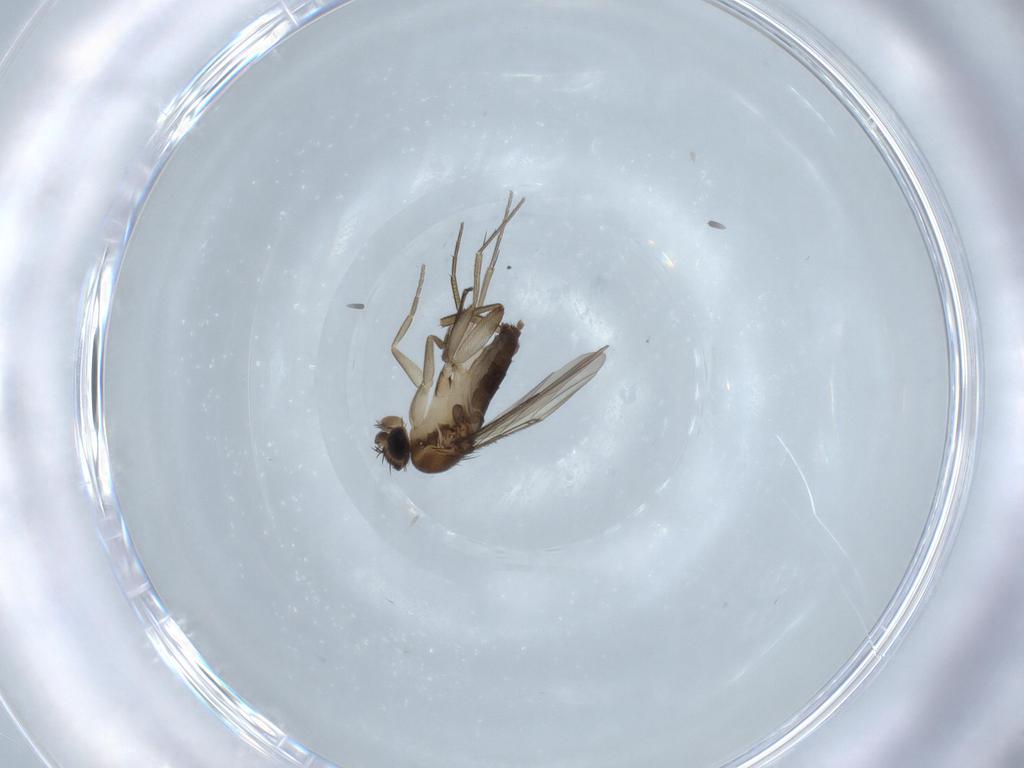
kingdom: Animalia
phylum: Arthropoda
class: Insecta
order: Diptera
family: Phoridae
